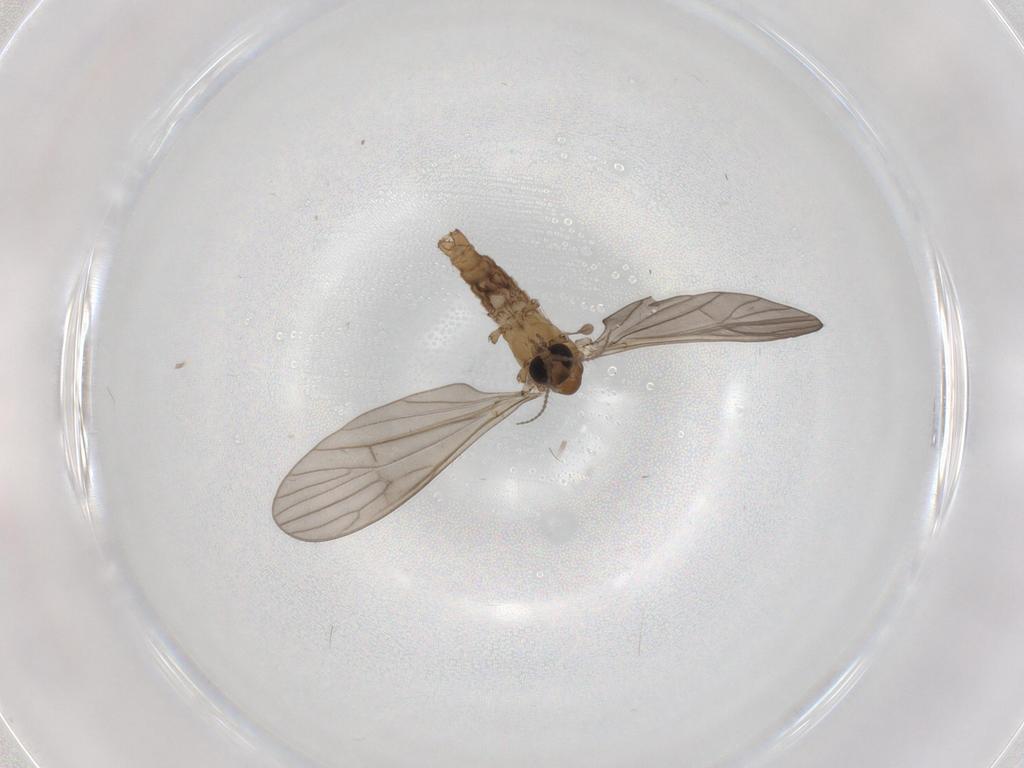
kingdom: Animalia
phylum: Arthropoda
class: Insecta
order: Diptera
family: Limoniidae
